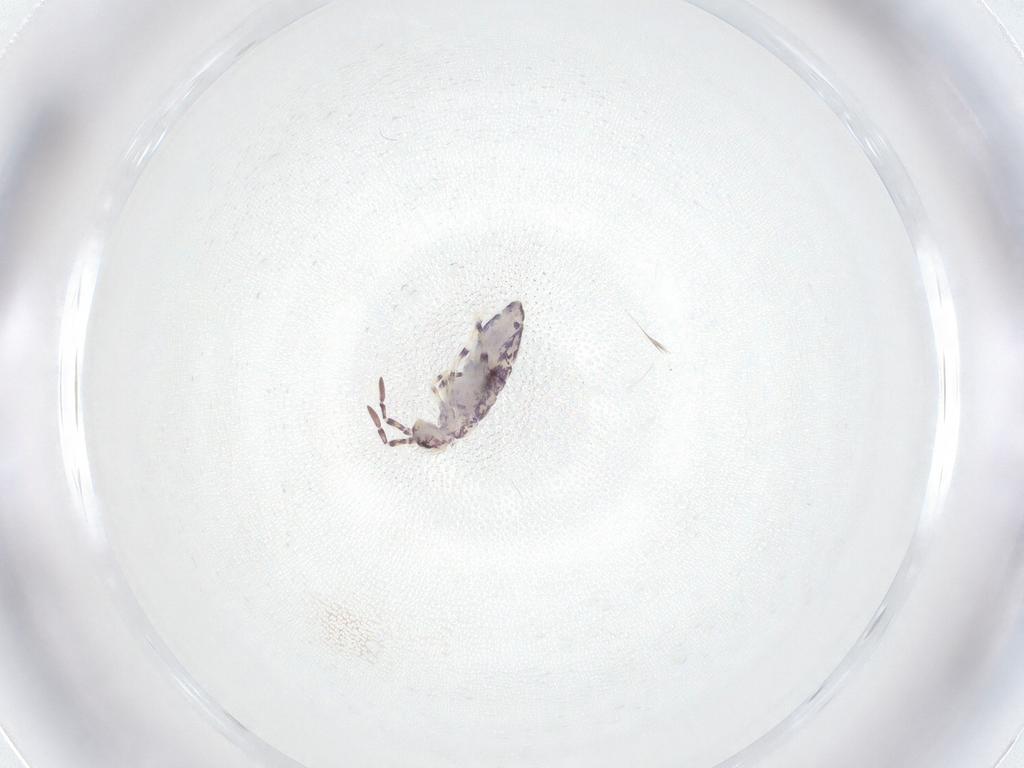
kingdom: Animalia
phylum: Arthropoda
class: Collembola
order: Entomobryomorpha
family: Entomobryidae
